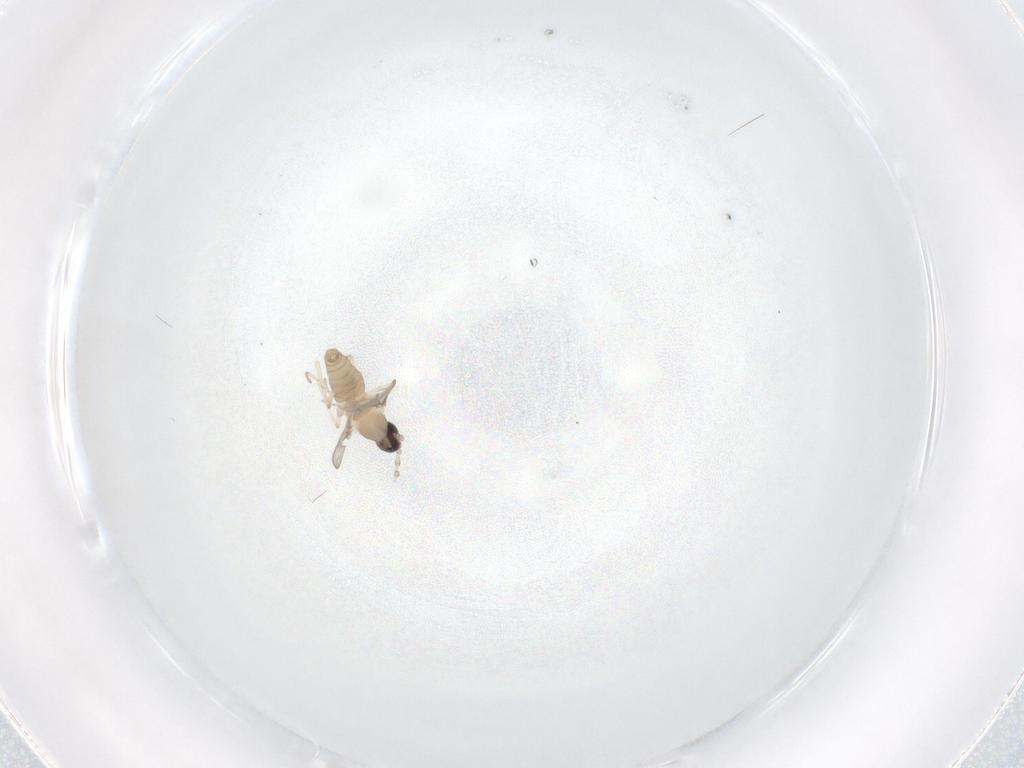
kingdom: Animalia
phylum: Arthropoda
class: Insecta
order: Diptera
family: Cecidomyiidae
